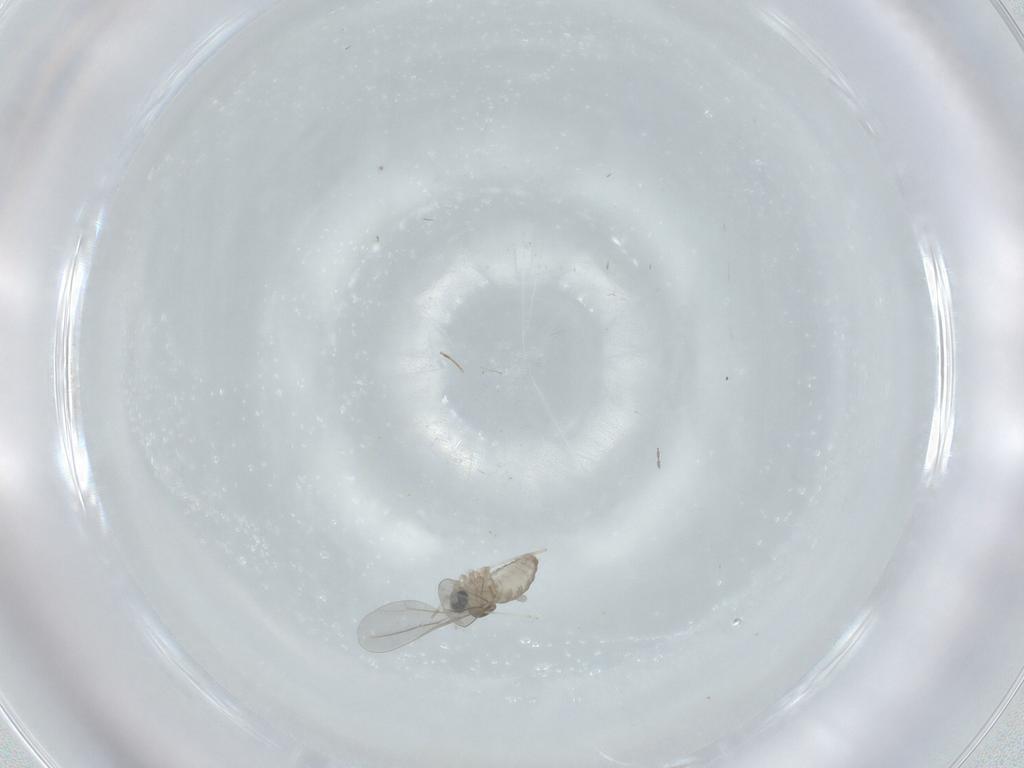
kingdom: Animalia
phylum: Arthropoda
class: Insecta
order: Diptera
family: Cecidomyiidae
